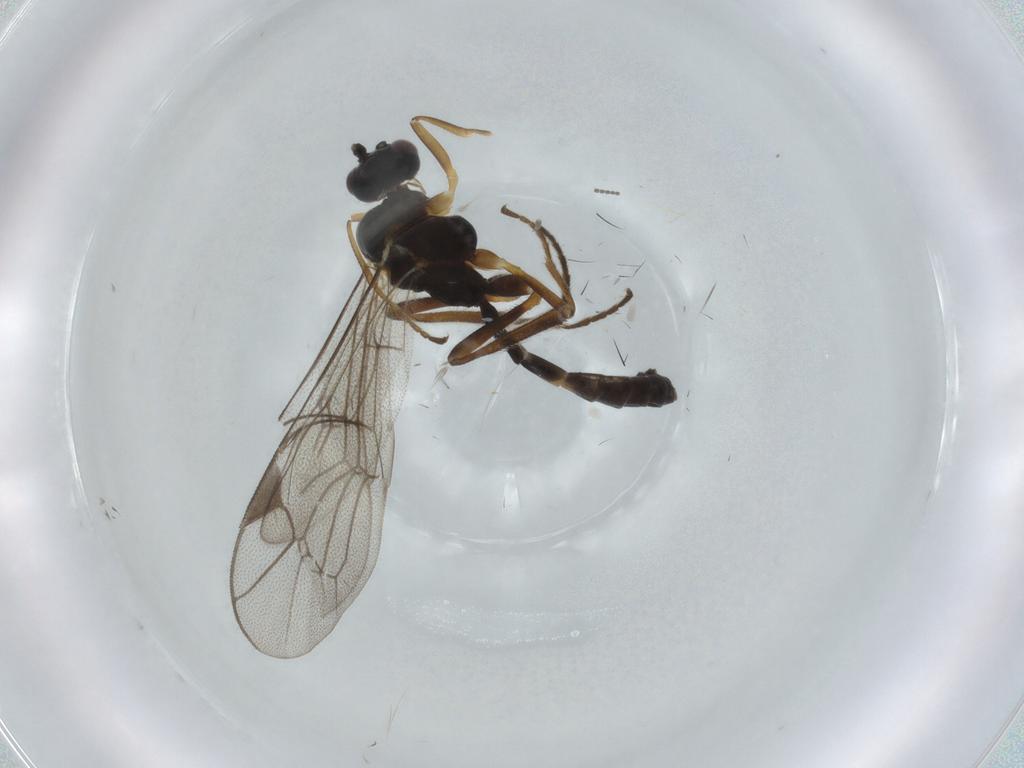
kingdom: Animalia
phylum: Arthropoda
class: Insecta
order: Hymenoptera
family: Ichneumonidae
